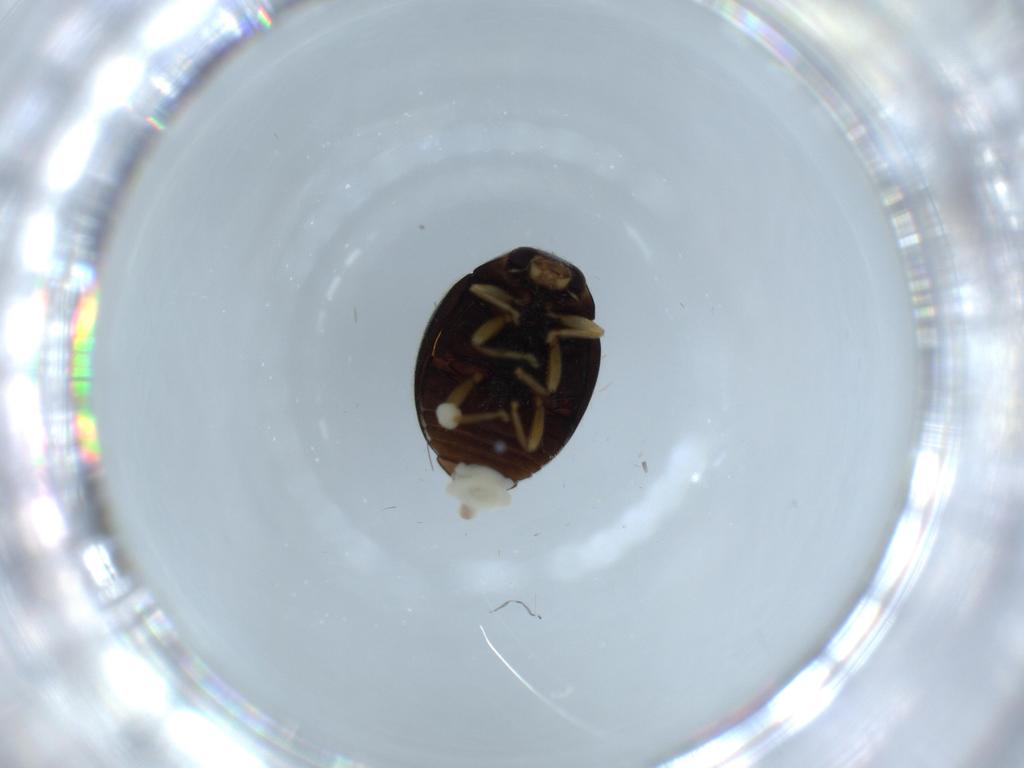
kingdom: Animalia
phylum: Arthropoda
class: Insecta
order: Coleoptera
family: Coccinellidae
